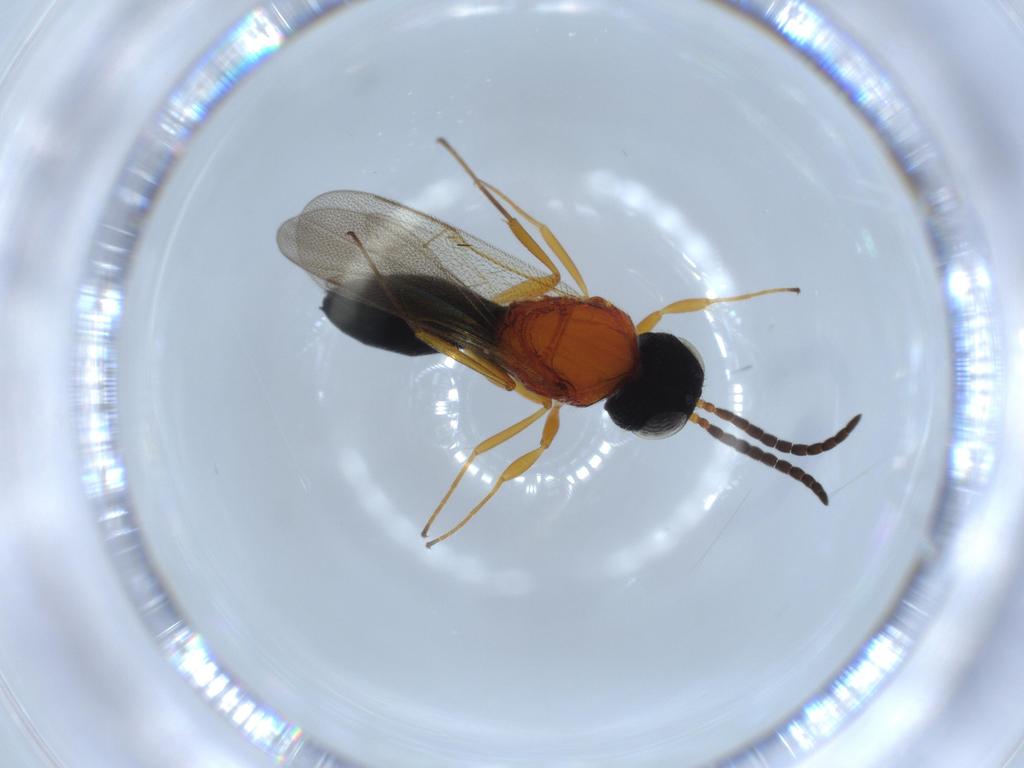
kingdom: Animalia
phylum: Arthropoda
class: Insecta
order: Hymenoptera
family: Scelionidae
